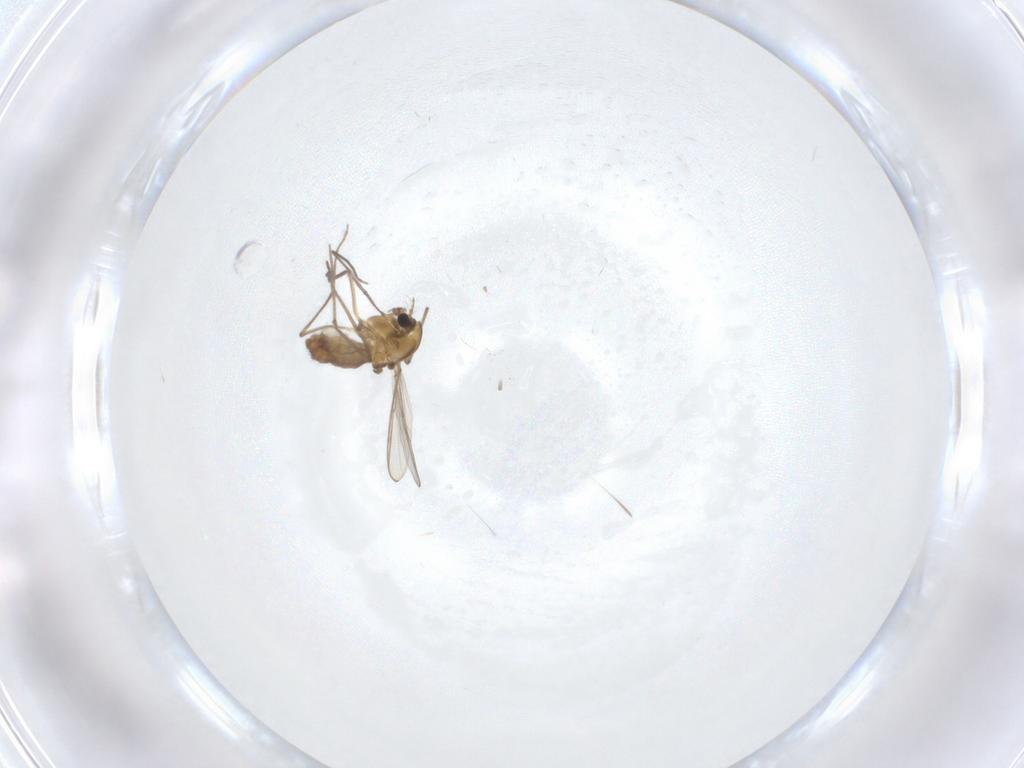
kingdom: Animalia
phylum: Arthropoda
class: Insecta
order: Diptera
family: Chironomidae
